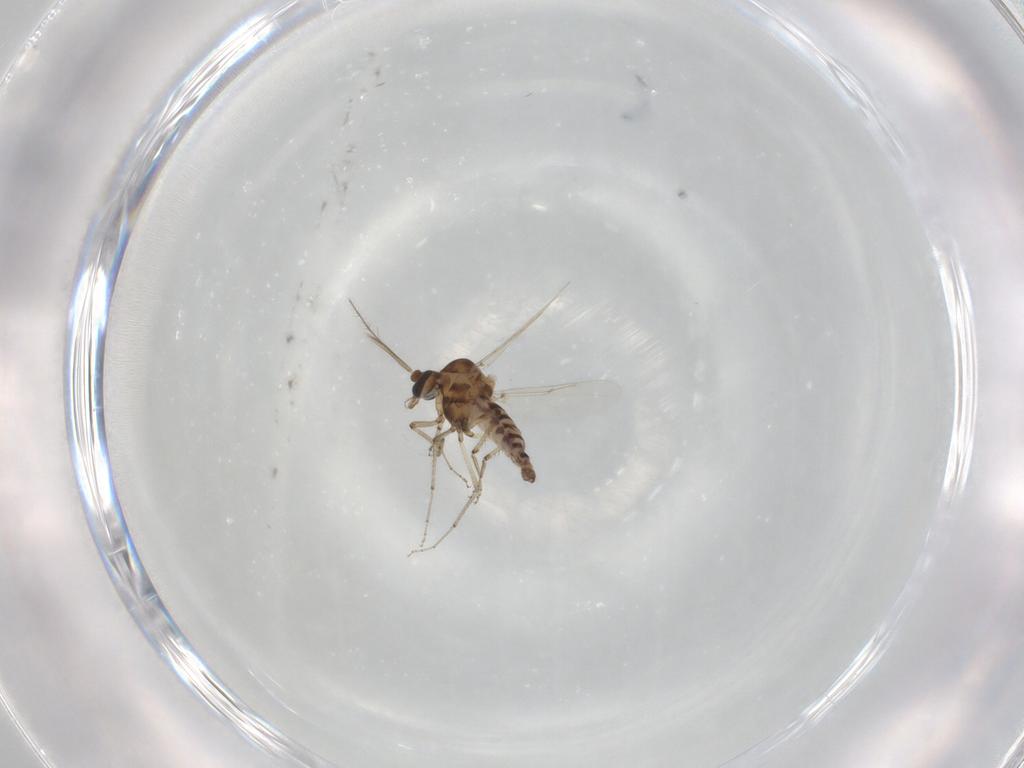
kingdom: Animalia
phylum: Arthropoda
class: Insecta
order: Diptera
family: Ceratopogonidae
